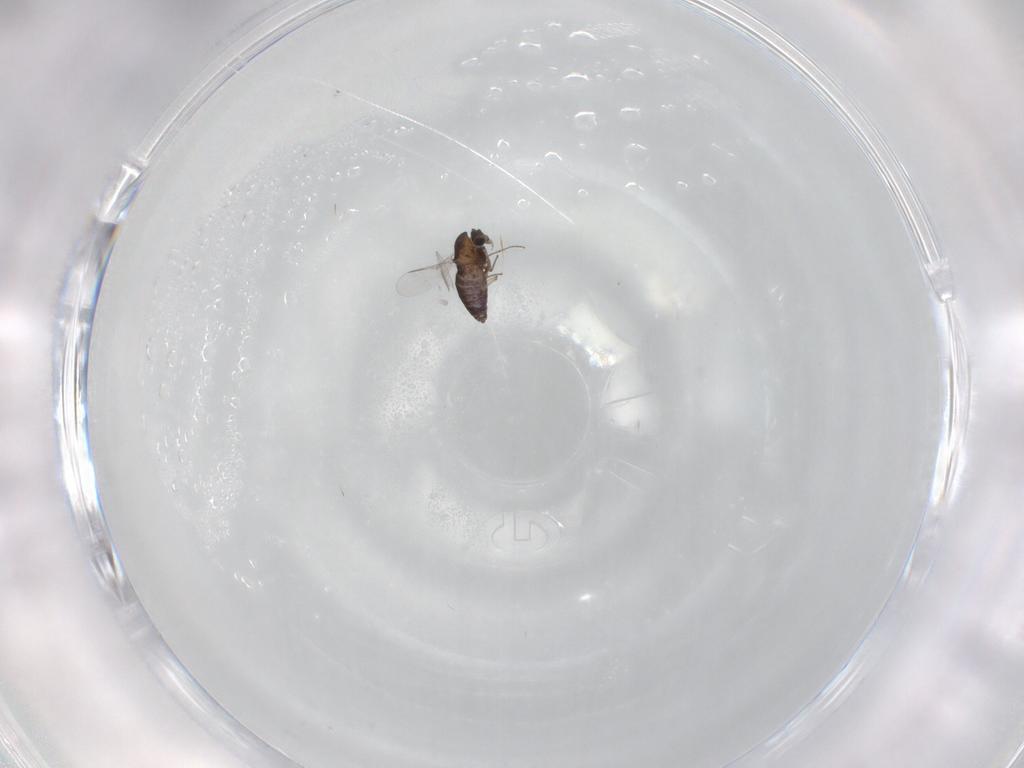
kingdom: Animalia
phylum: Arthropoda
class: Insecta
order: Diptera
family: Chironomidae
